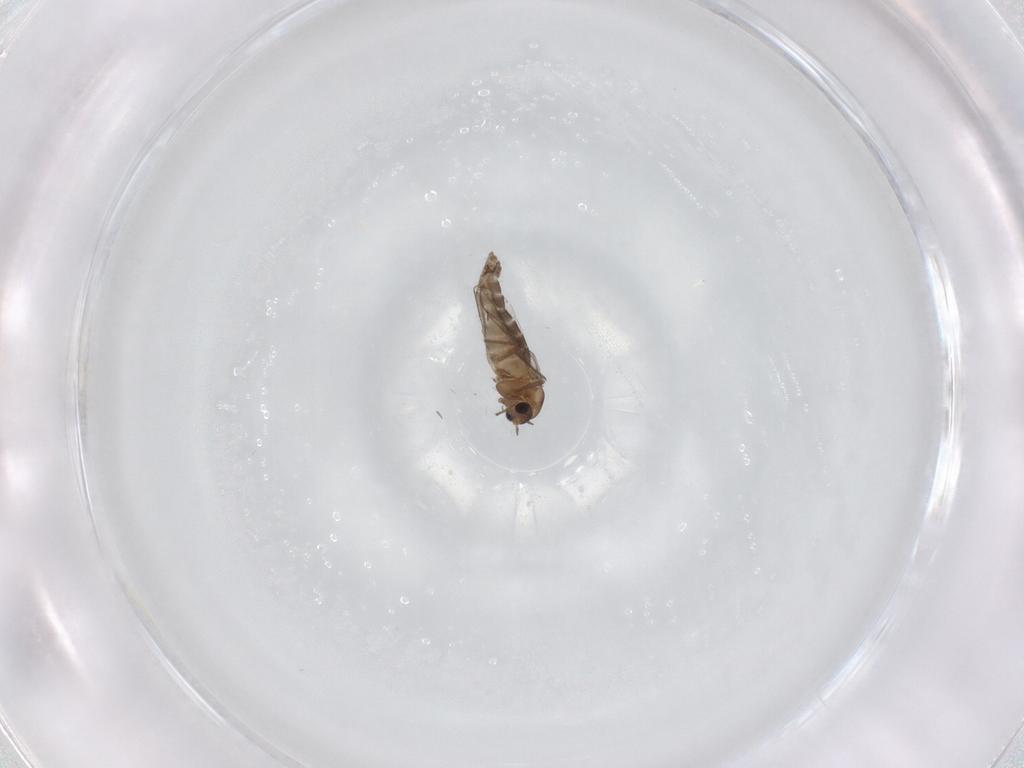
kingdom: Animalia
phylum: Arthropoda
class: Insecta
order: Diptera
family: Chironomidae
